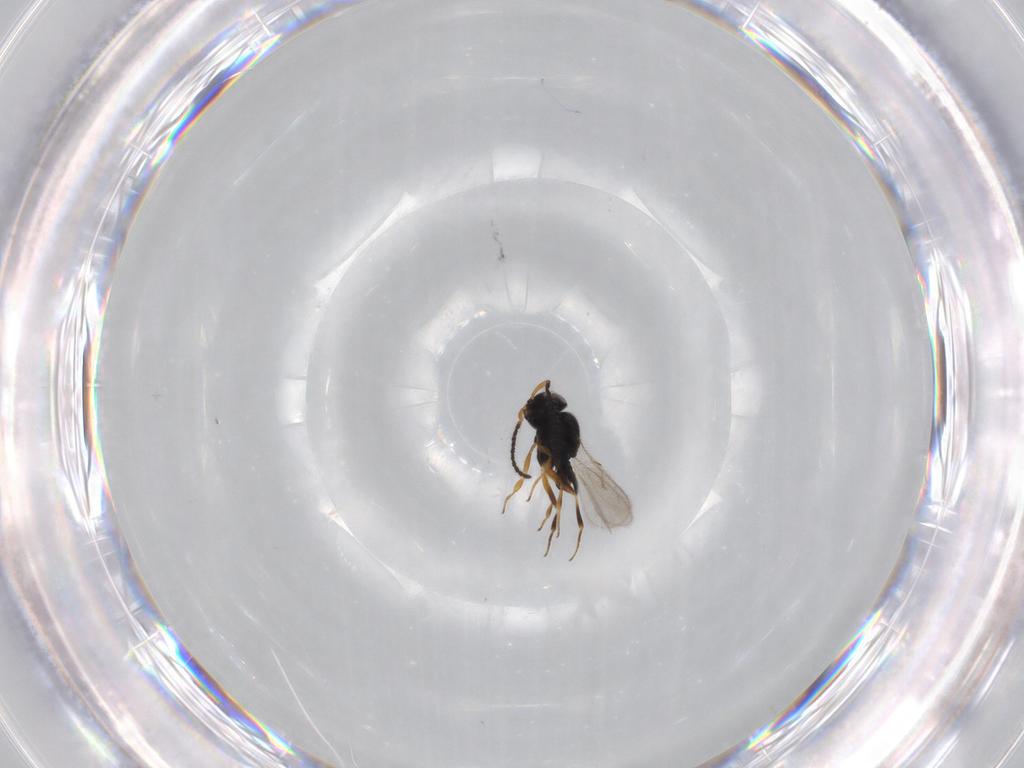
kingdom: Animalia
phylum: Arthropoda
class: Insecta
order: Hymenoptera
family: Scelionidae
